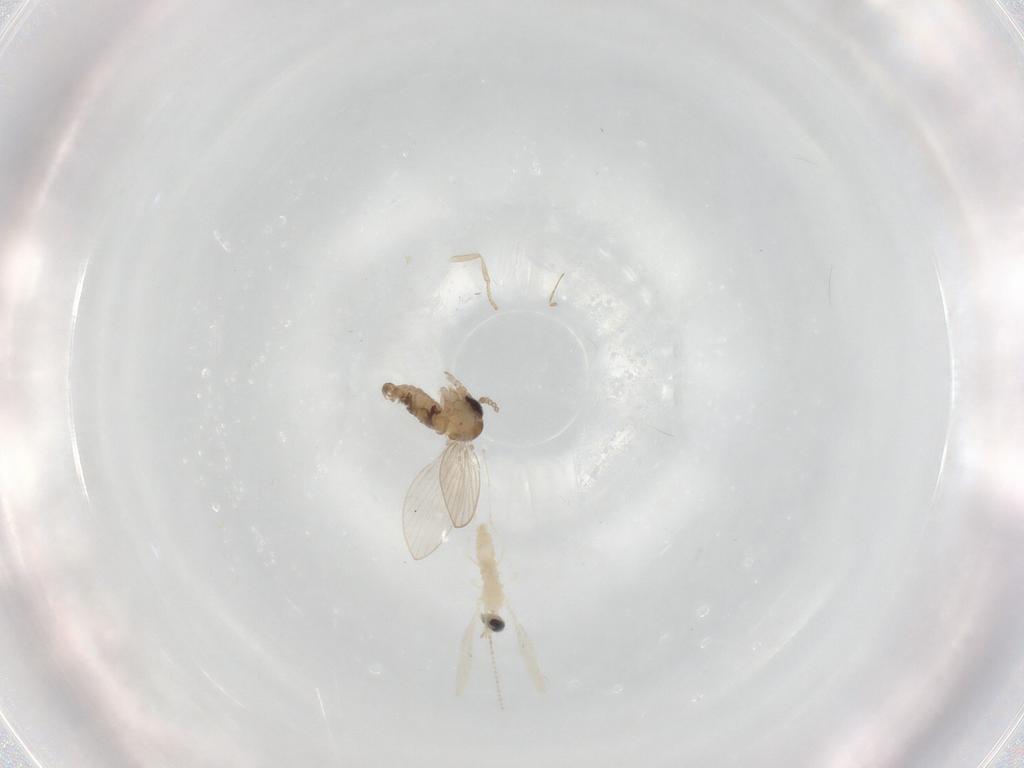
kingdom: Animalia
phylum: Arthropoda
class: Insecta
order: Diptera
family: Psychodidae
